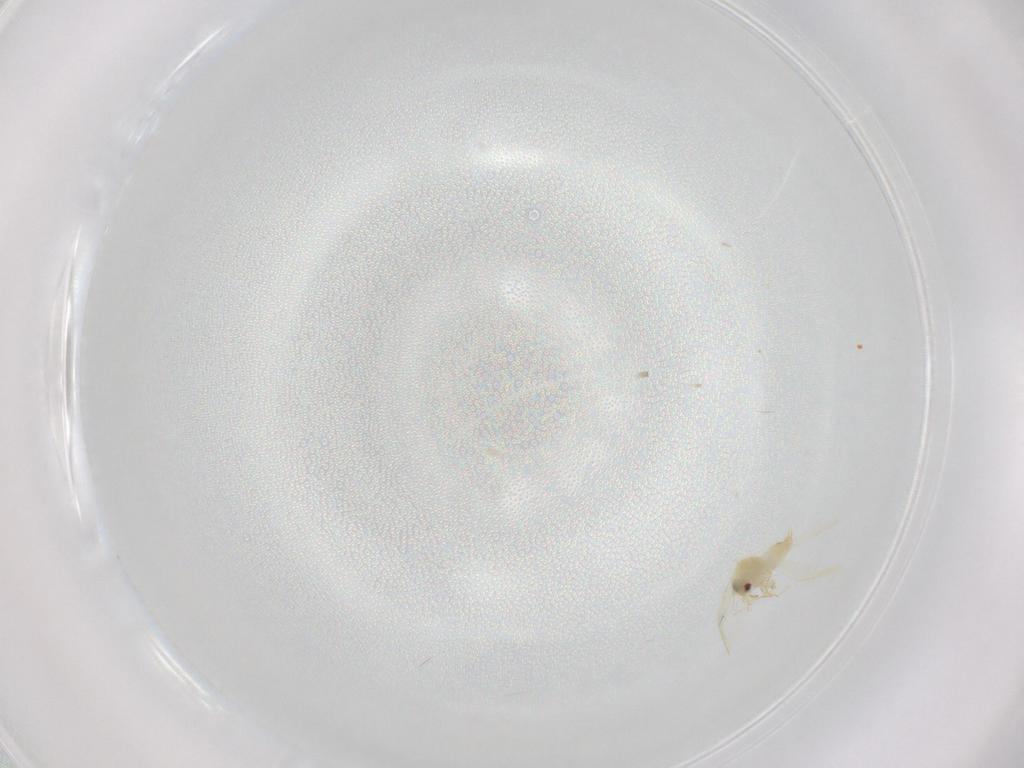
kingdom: Animalia
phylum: Arthropoda
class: Insecta
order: Hemiptera
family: Aleyrodidae
